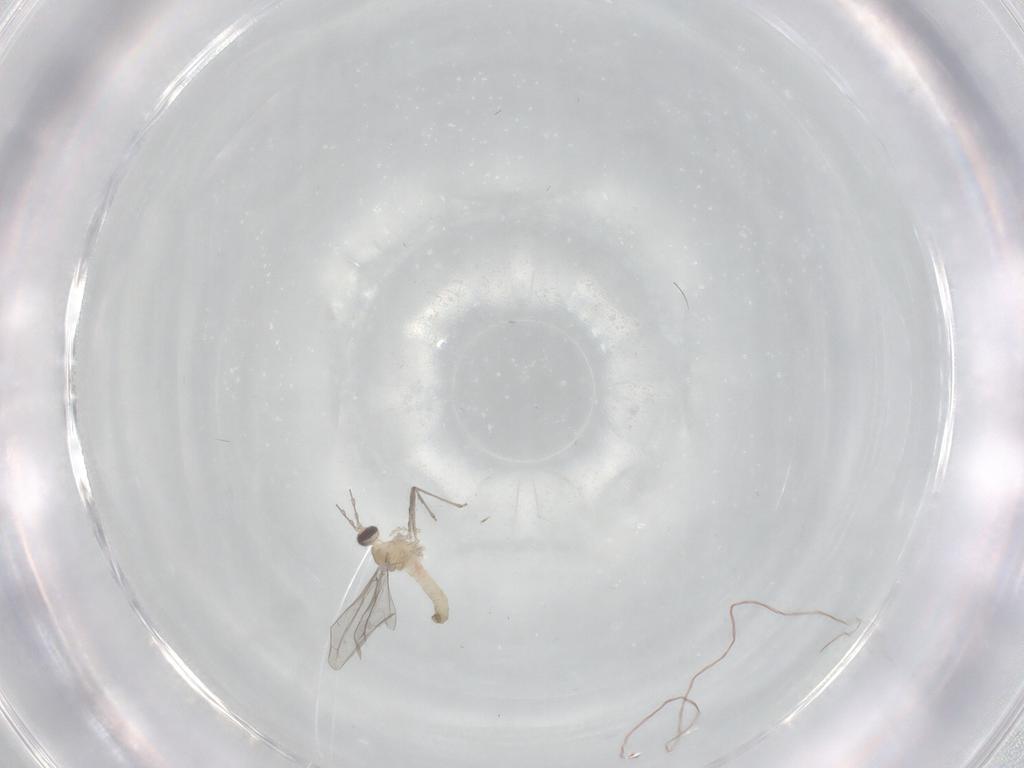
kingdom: Animalia
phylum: Arthropoda
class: Insecta
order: Diptera
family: Cecidomyiidae
